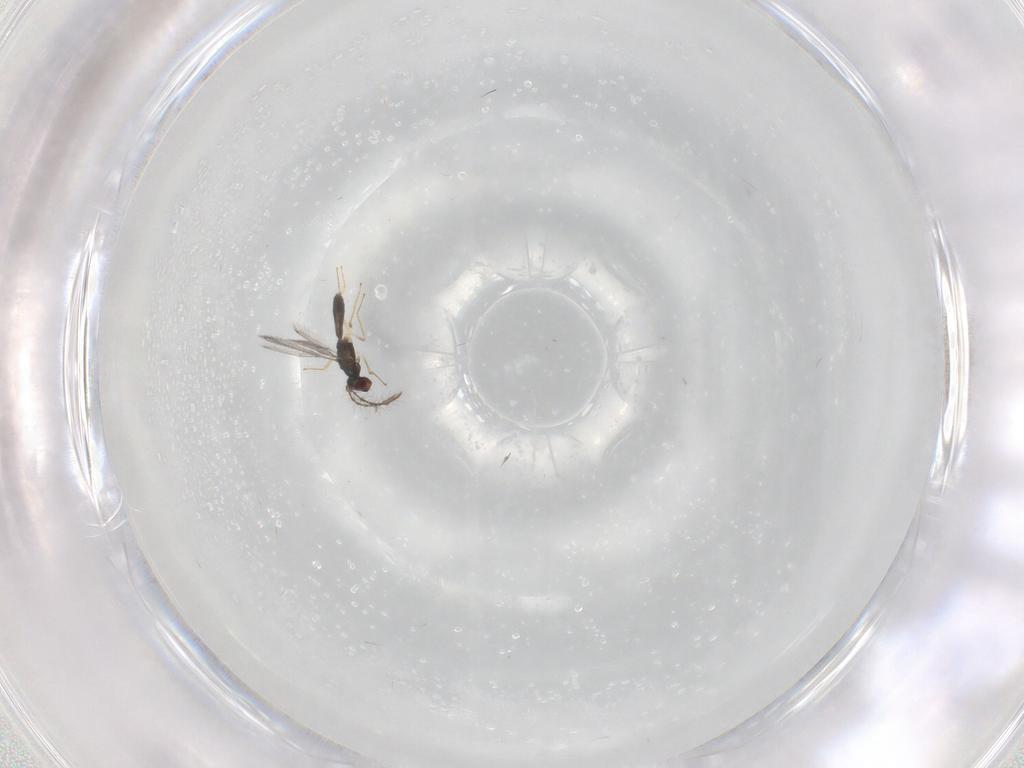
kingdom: Animalia
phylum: Arthropoda
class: Insecta
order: Hymenoptera
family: Pteromalidae
